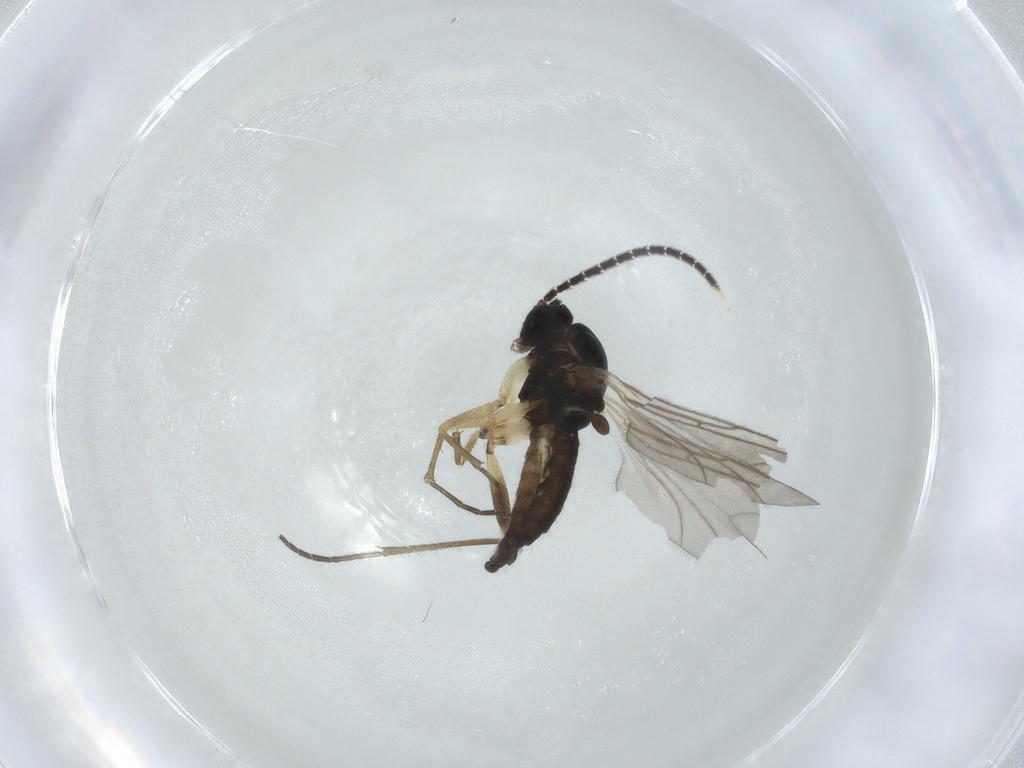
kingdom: Animalia
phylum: Arthropoda
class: Insecta
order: Diptera
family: Sciaridae
